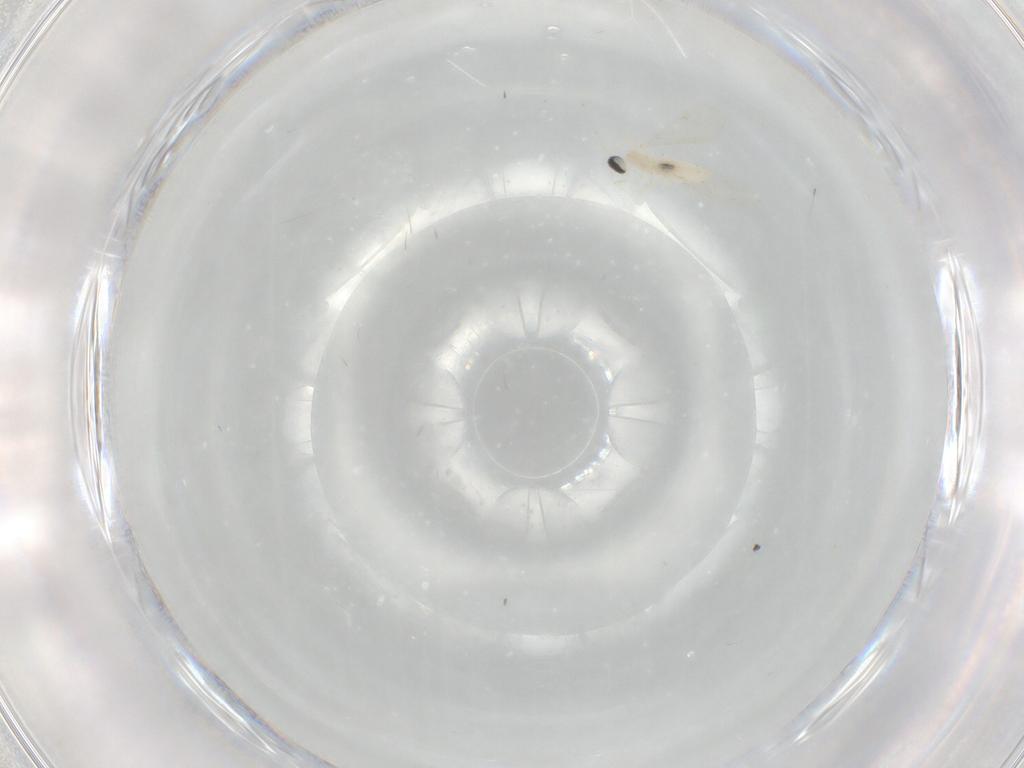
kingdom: Animalia
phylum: Arthropoda
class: Insecta
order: Diptera
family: Cecidomyiidae
